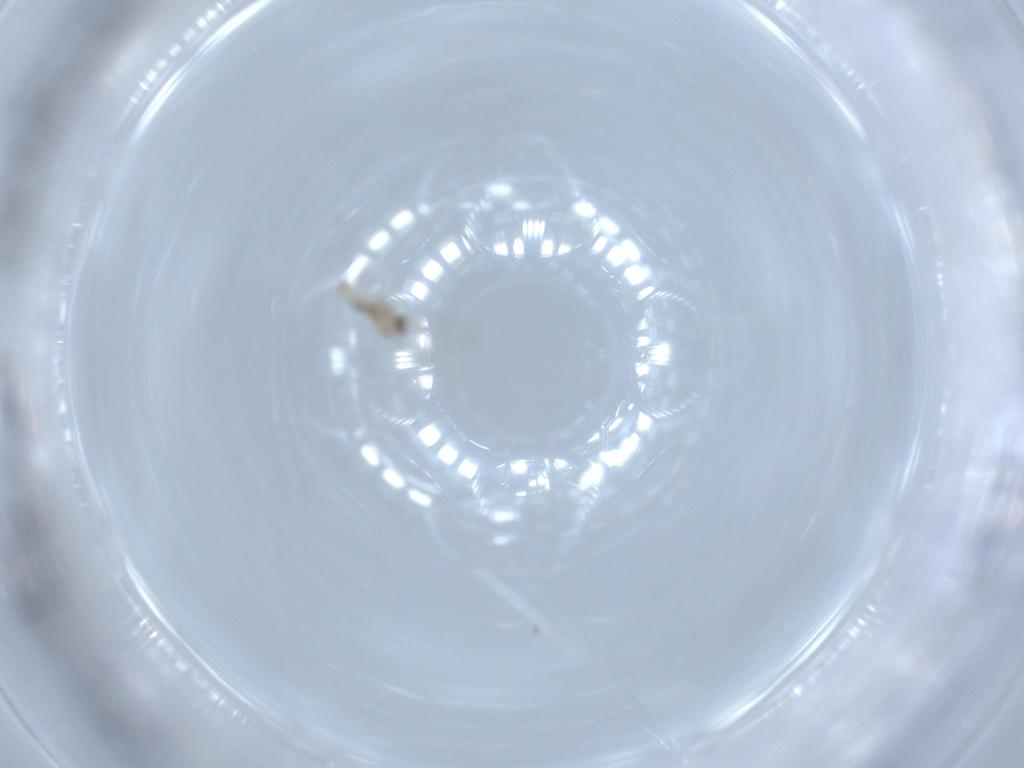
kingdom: Animalia
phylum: Arthropoda
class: Insecta
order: Diptera
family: Cecidomyiidae
